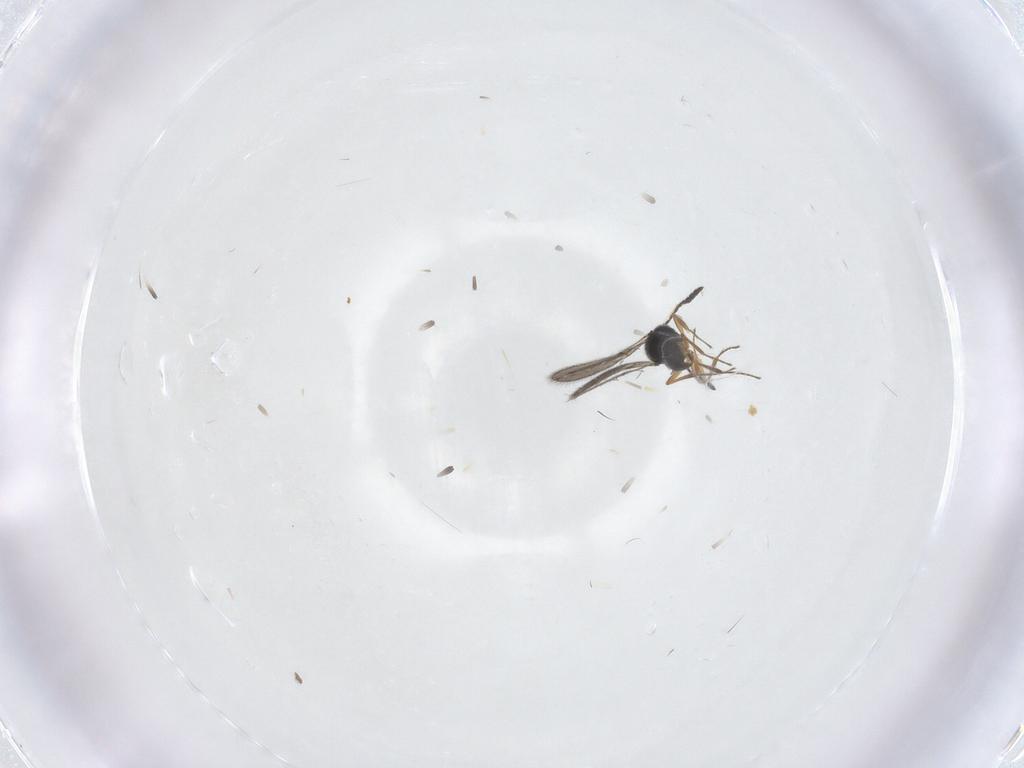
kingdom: Animalia
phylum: Arthropoda
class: Insecta
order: Hymenoptera
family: Scelionidae
